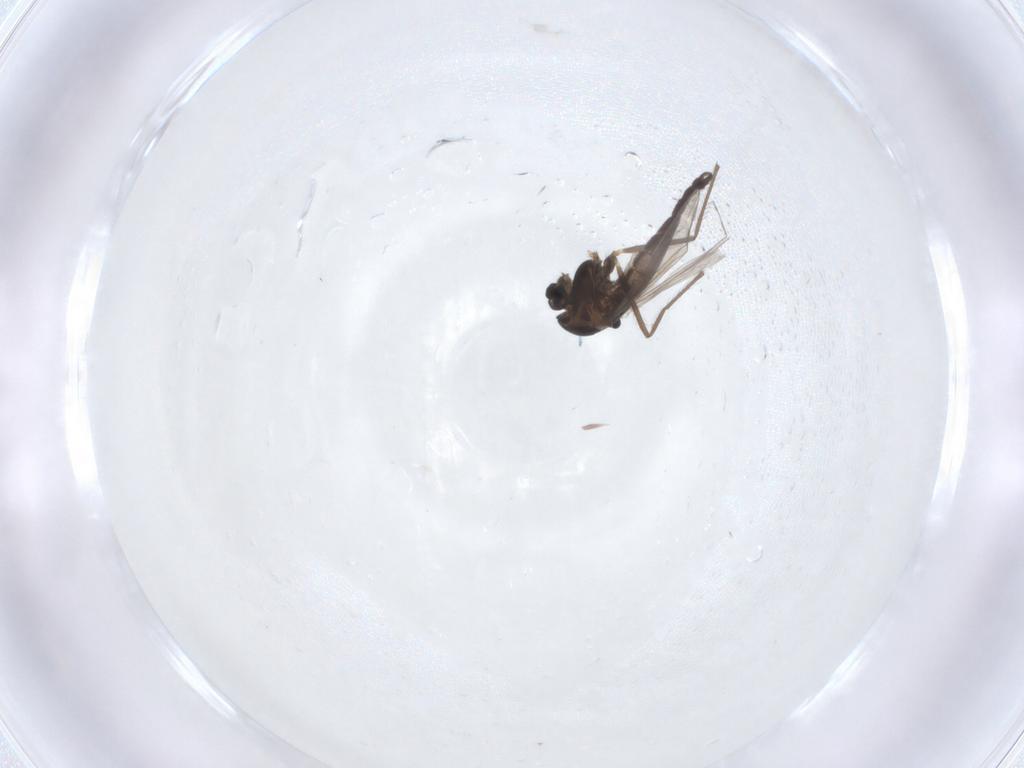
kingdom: Animalia
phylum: Arthropoda
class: Insecta
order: Diptera
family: Chironomidae
